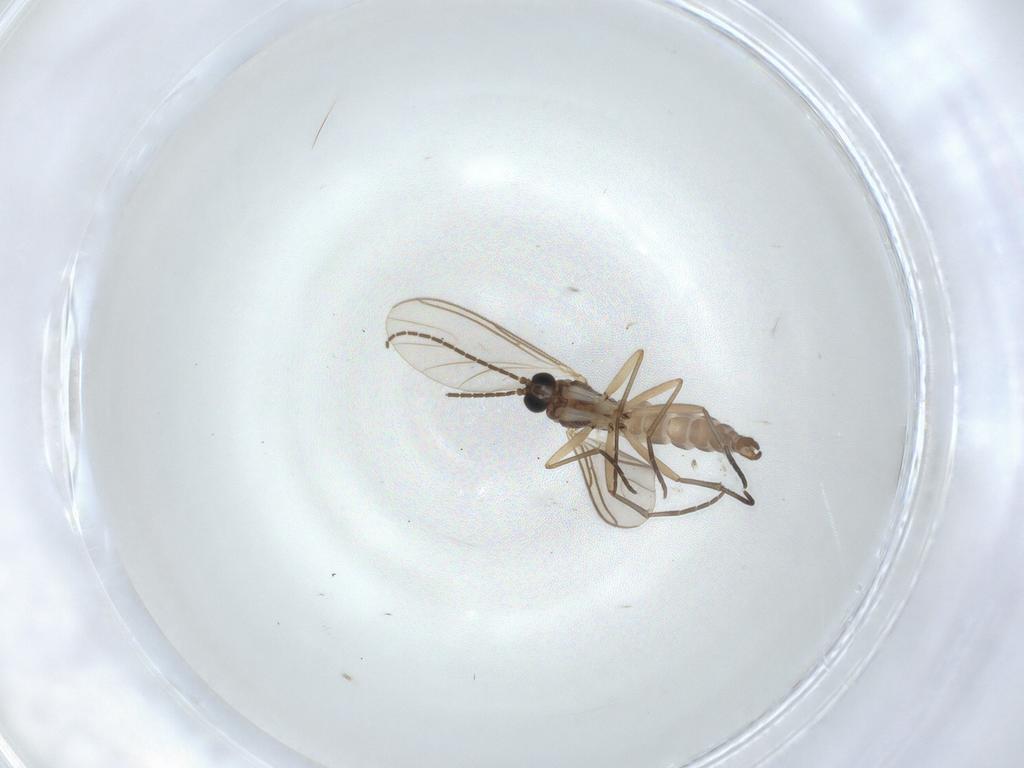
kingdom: Animalia
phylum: Arthropoda
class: Insecta
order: Diptera
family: Sciaridae
